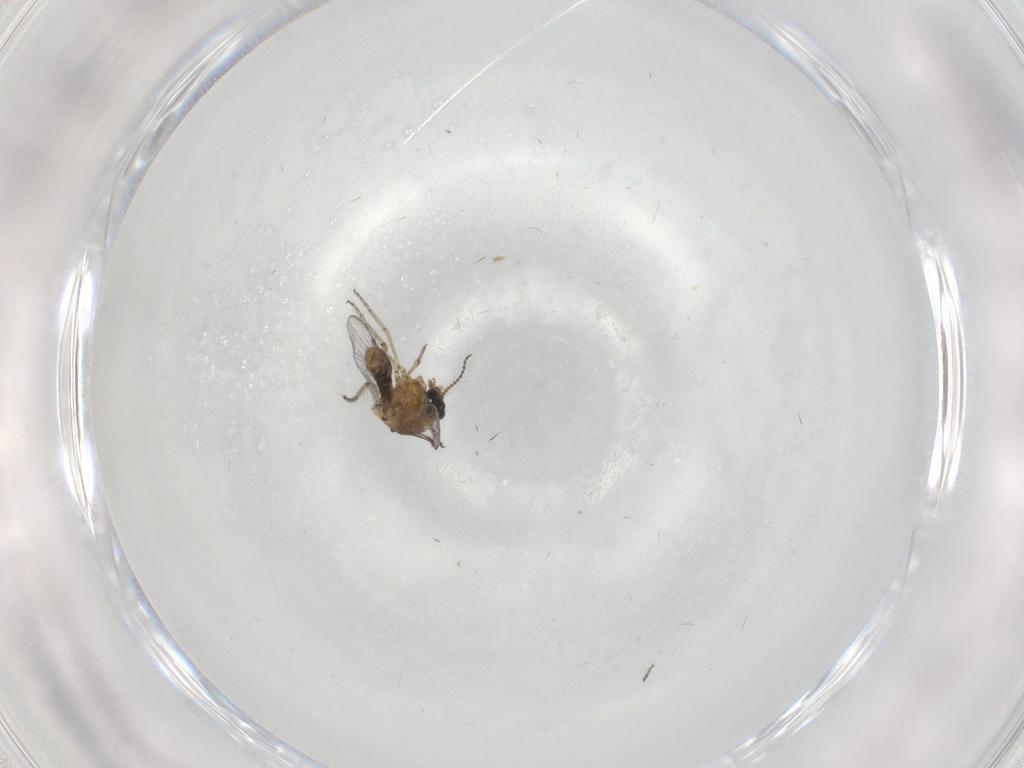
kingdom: Animalia
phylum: Arthropoda
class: Insecta
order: Diptera
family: Ceratopogonidae
